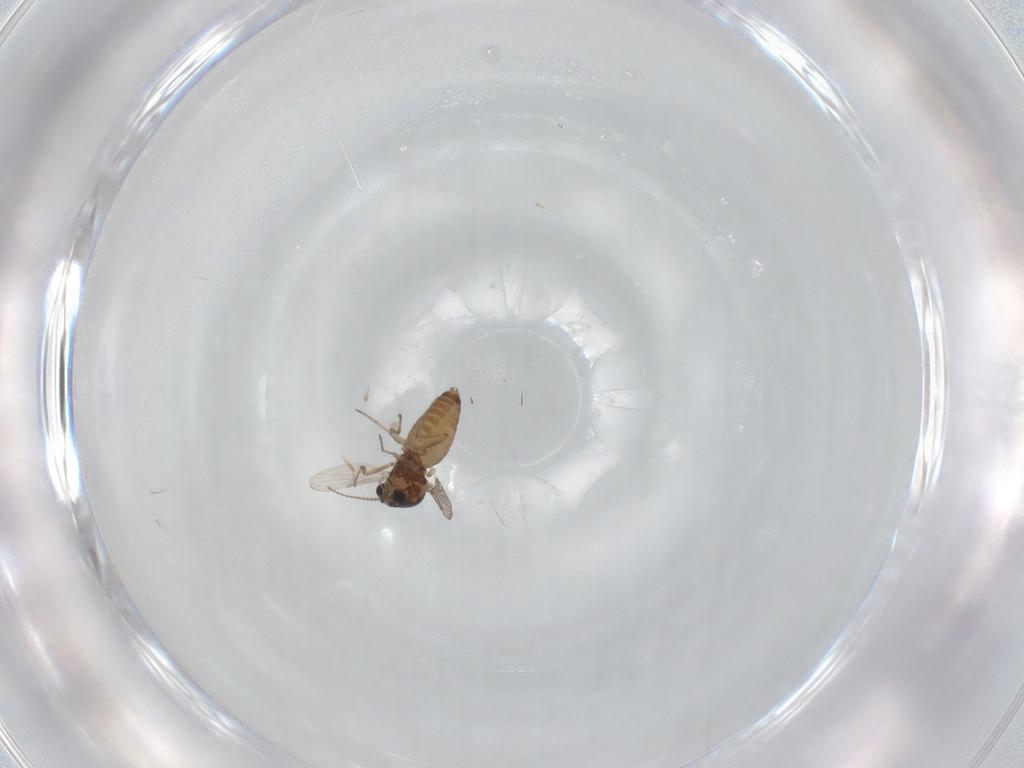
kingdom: Animalia
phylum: Arthropoda
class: Insecta
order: Diptera
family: Ceratopogonidae
